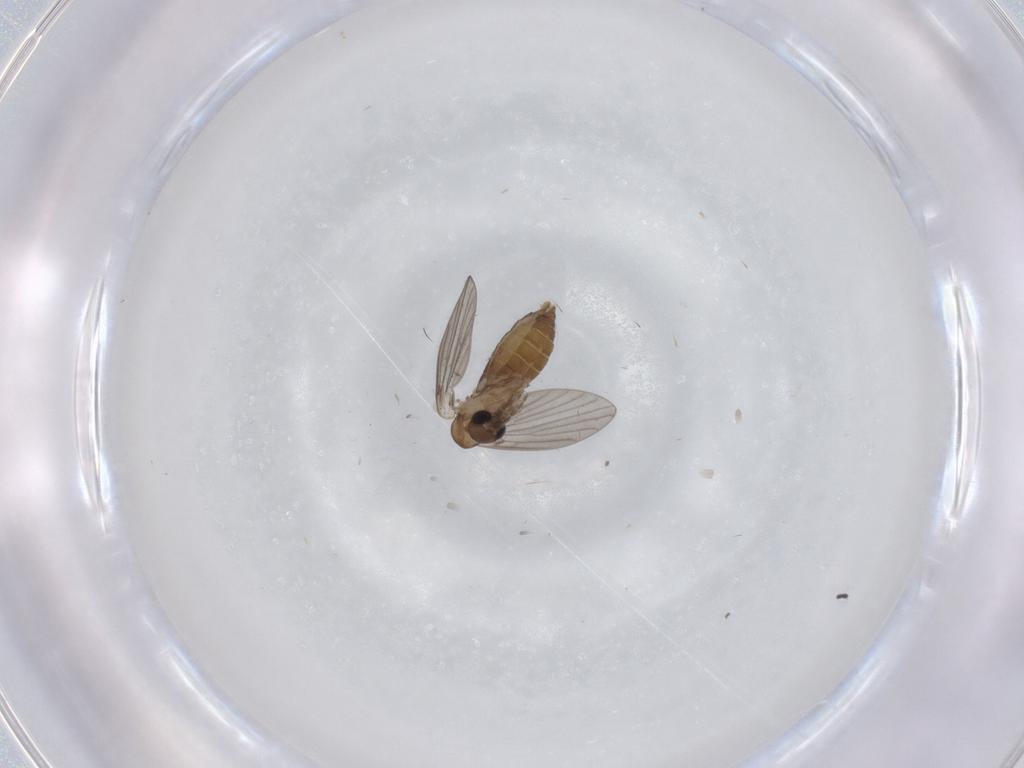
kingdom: Animalia
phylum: Arthropoda
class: Insecta
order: Diptera
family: Sciaridae
